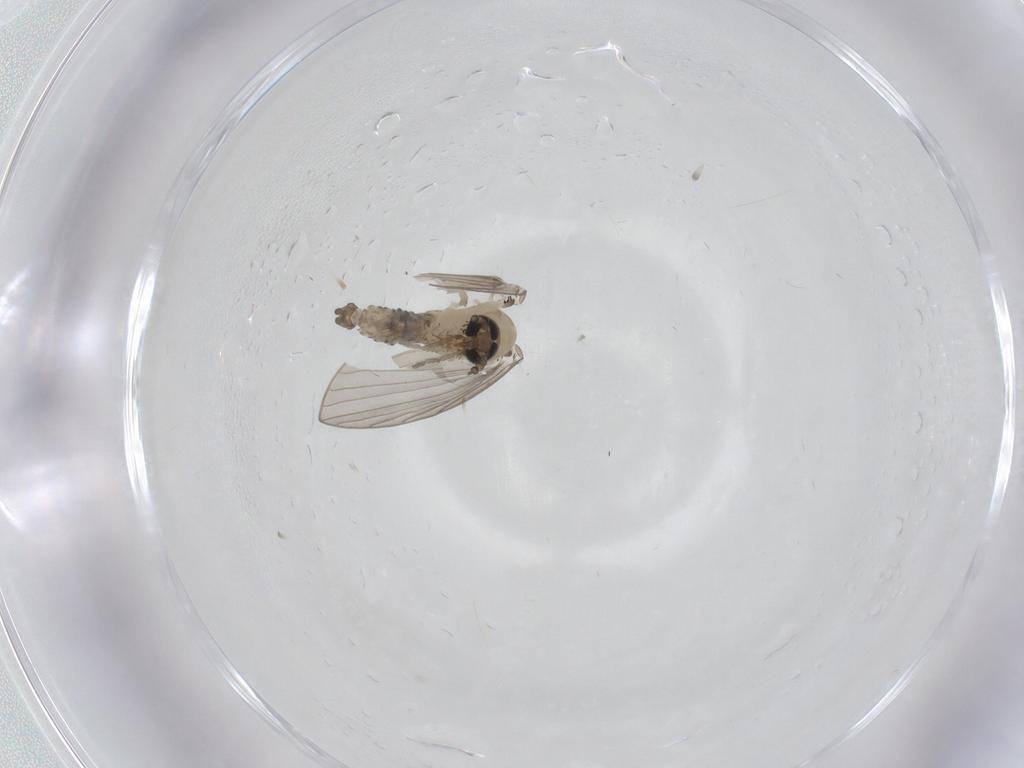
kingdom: Animalia
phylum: Arthropoda
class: Insecta
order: Diptera
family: Psychodidae
